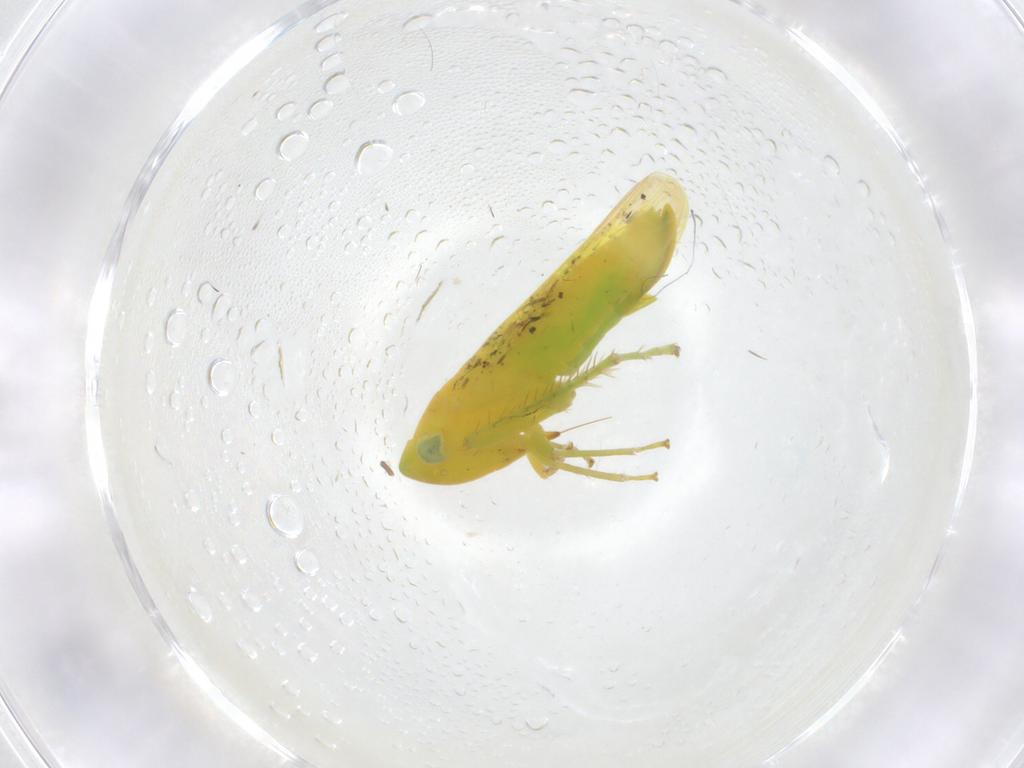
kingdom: Animalia
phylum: Arthropoda
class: Insecta
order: Hemiptera
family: Cicadellidae
